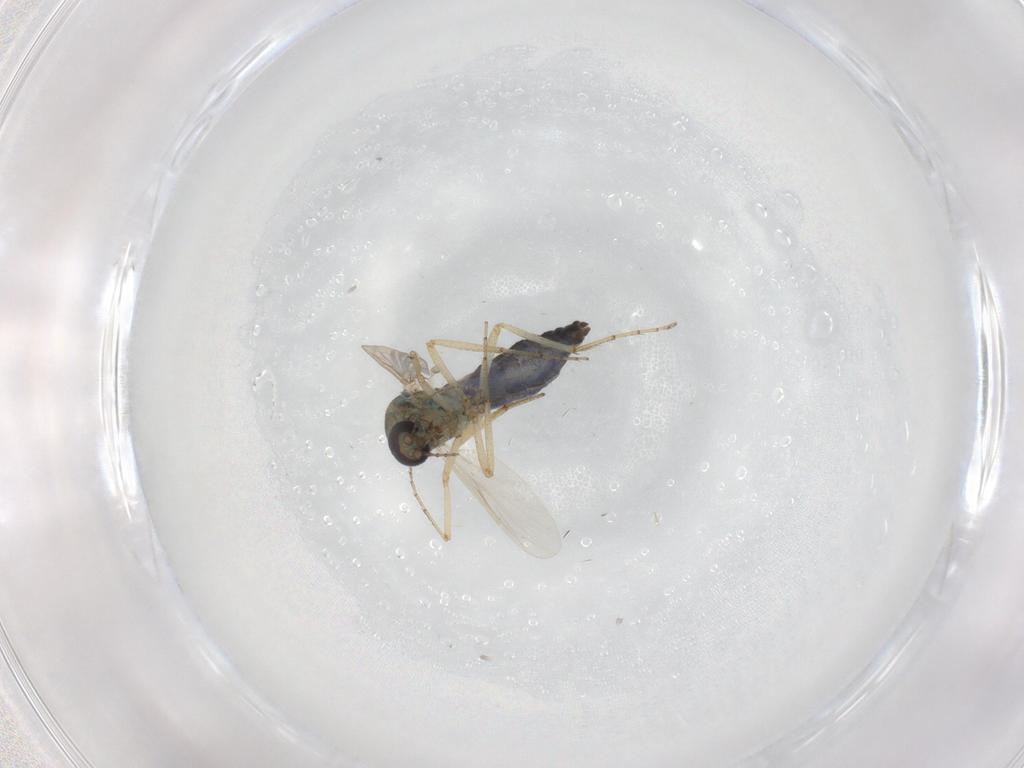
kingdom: Animalia
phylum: Arthropoda
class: Insecta
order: Diptera
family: Ceratopogonidae
